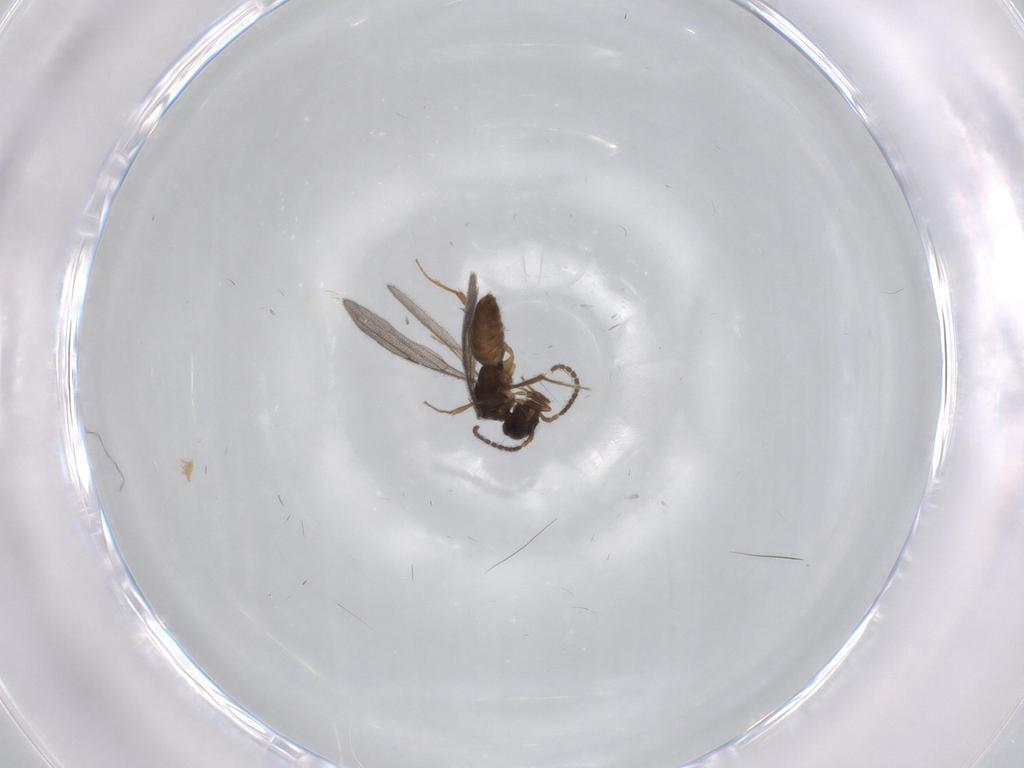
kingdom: Animalia
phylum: Arthropoda
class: Insecta
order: Hymenoptera
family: Bethylidae
